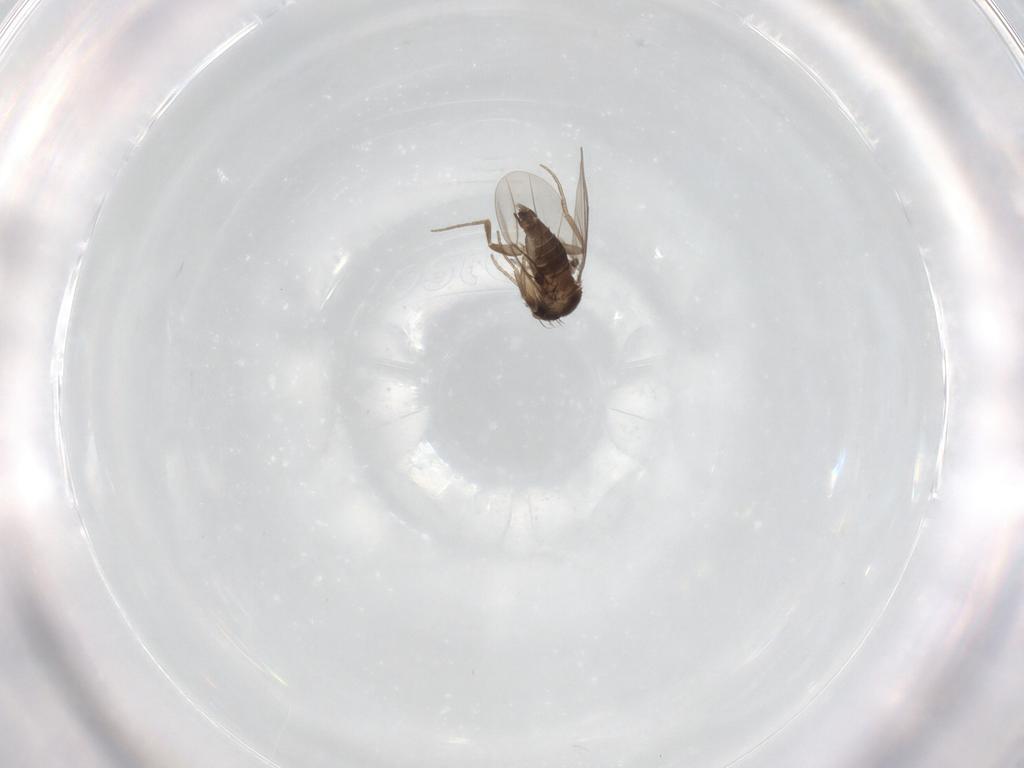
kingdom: Animalia
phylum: Arthropoda
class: Insecta
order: Diptera
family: Phoridae
